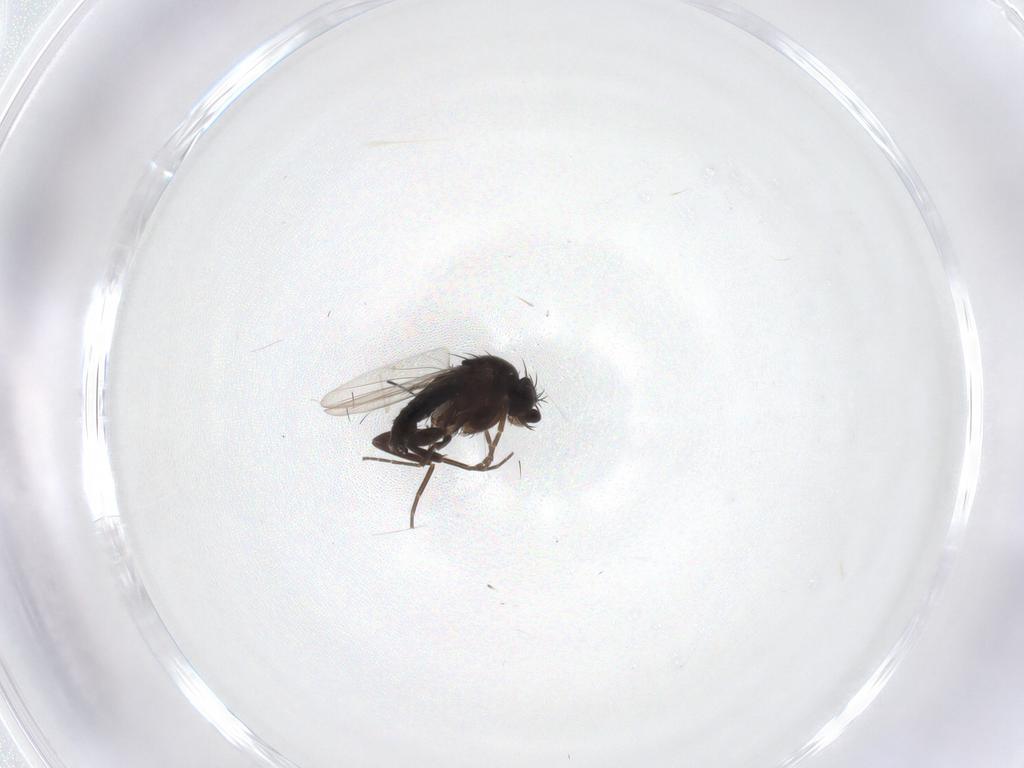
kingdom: Animalia
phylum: Arthropoda
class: Insecta
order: Diptera
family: Phoridae
